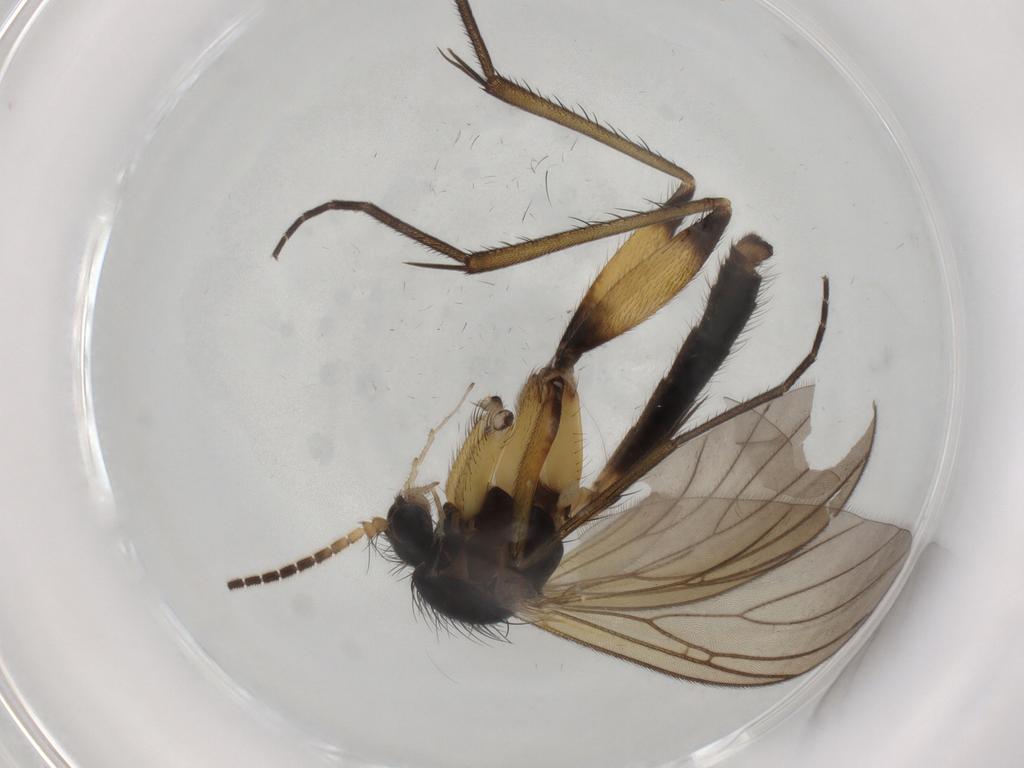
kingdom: Animalia
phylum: Arthropoda
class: Insecta
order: Diptera
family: Mycetophilidae
